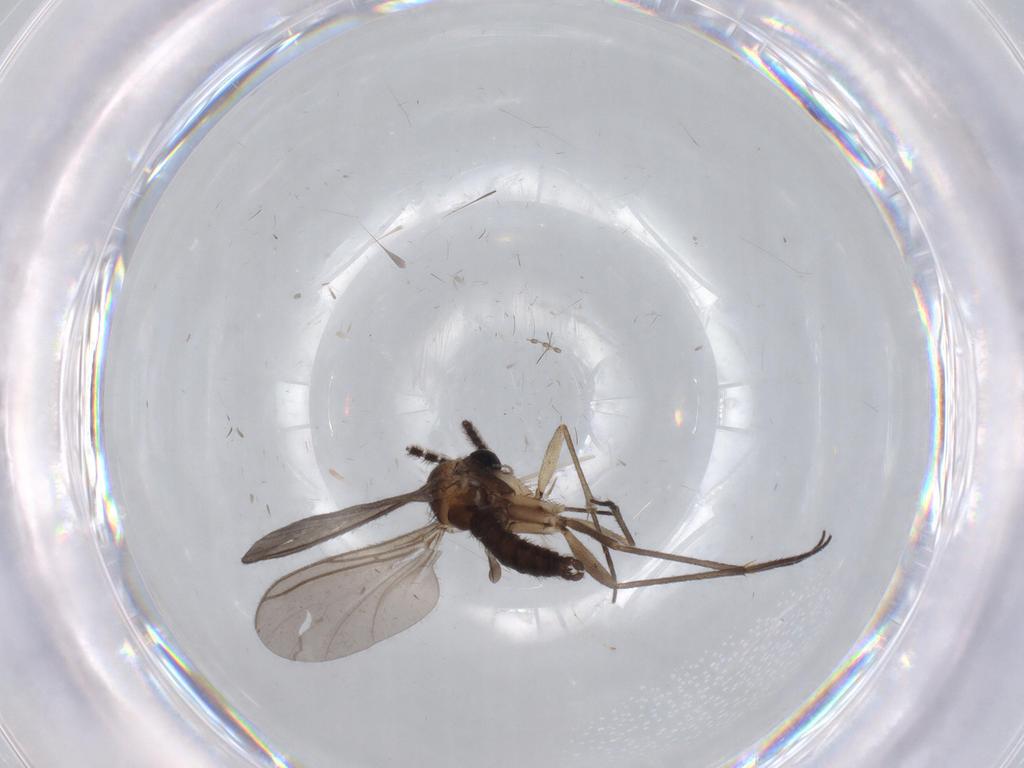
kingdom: Animalia
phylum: Arthropoda
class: Insecta
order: Diptera
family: Sciaridae
